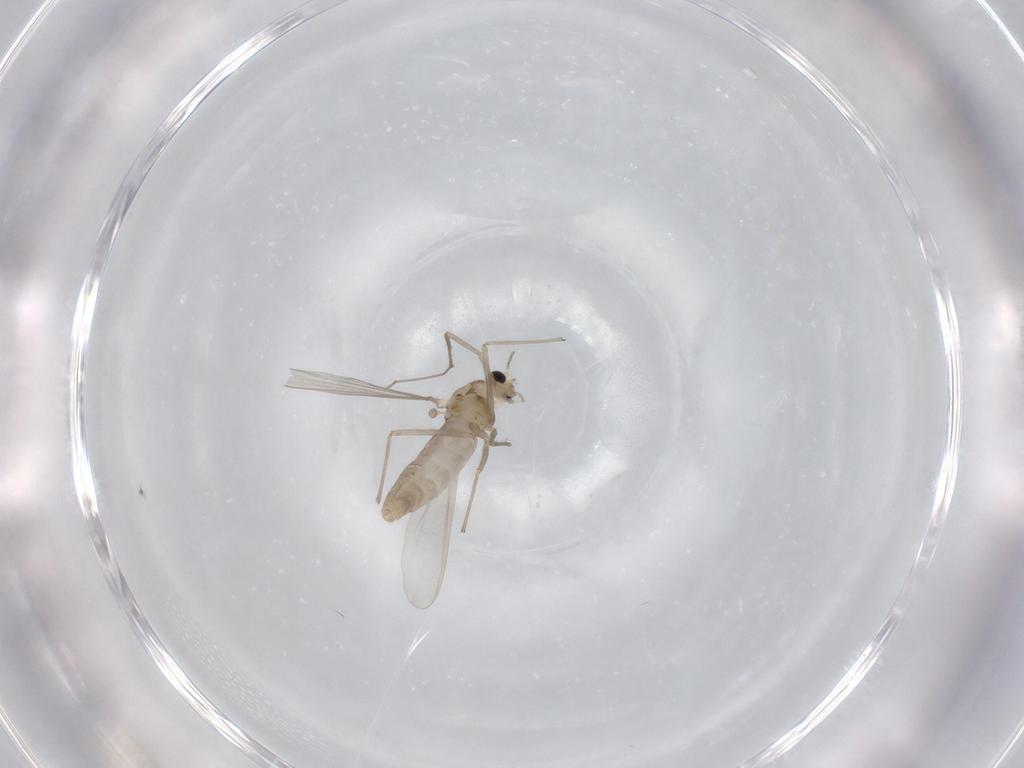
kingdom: Animalia
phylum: Arthropoda
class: Insecta
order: Diptera
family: Chironomidae
